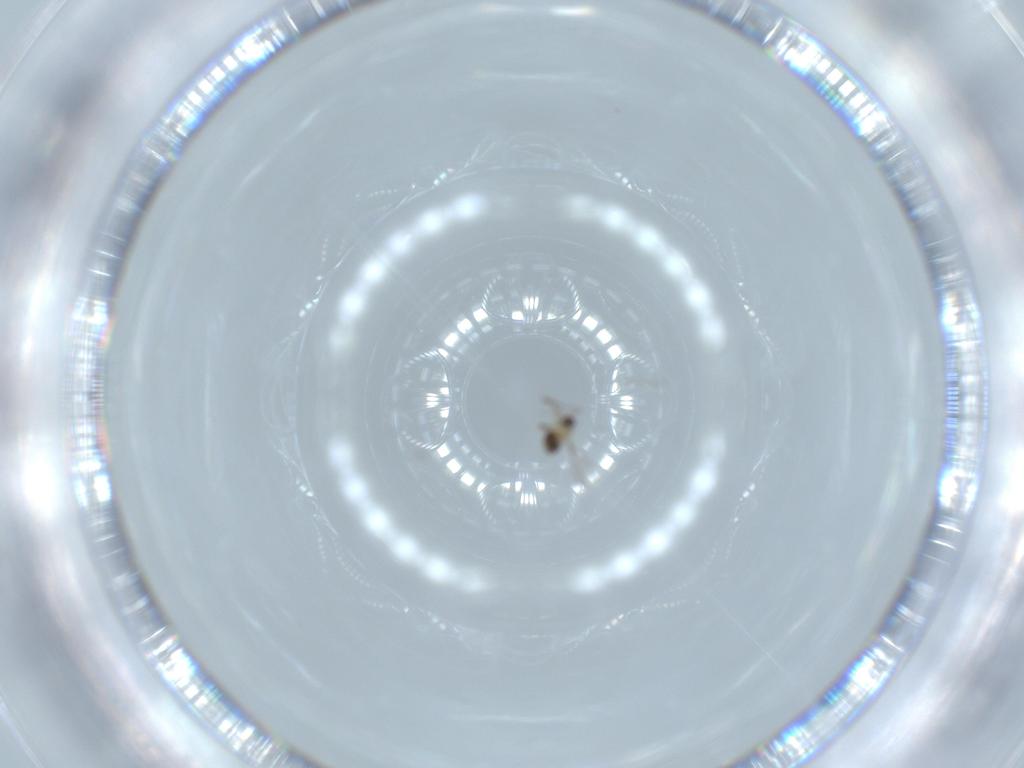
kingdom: Animalia
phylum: Arthropoda
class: Insecta
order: Hymenoptera
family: Mymaridae
